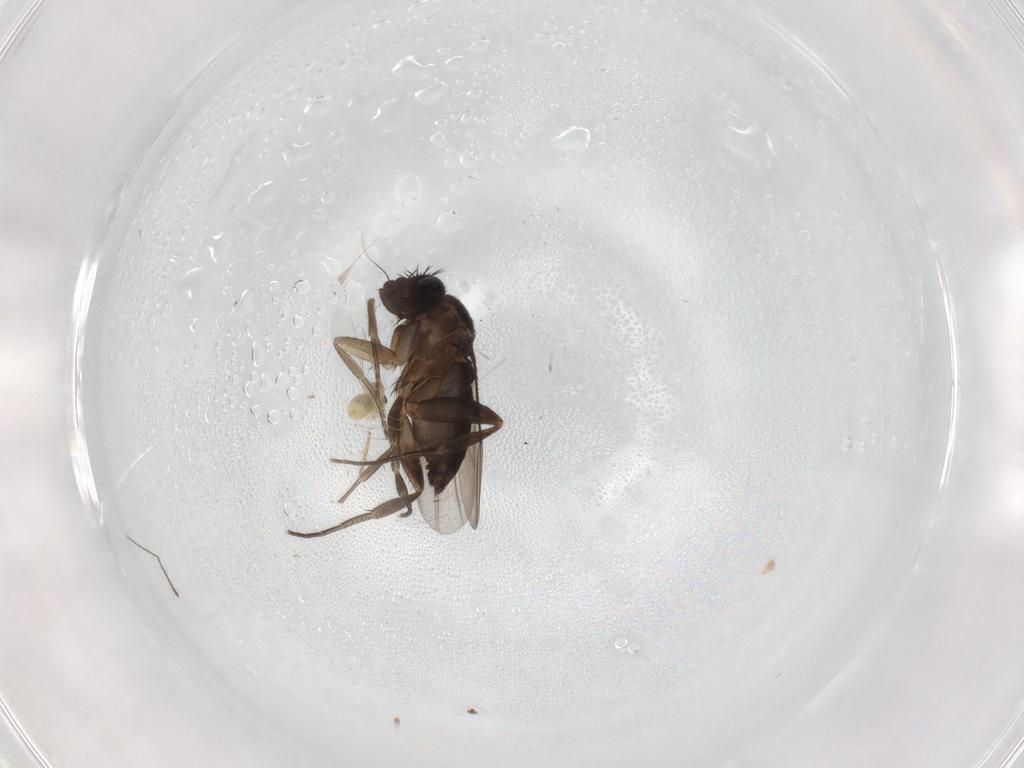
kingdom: Animalia
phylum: Arthropoda
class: Insecta
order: Diptera
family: Phoridae
